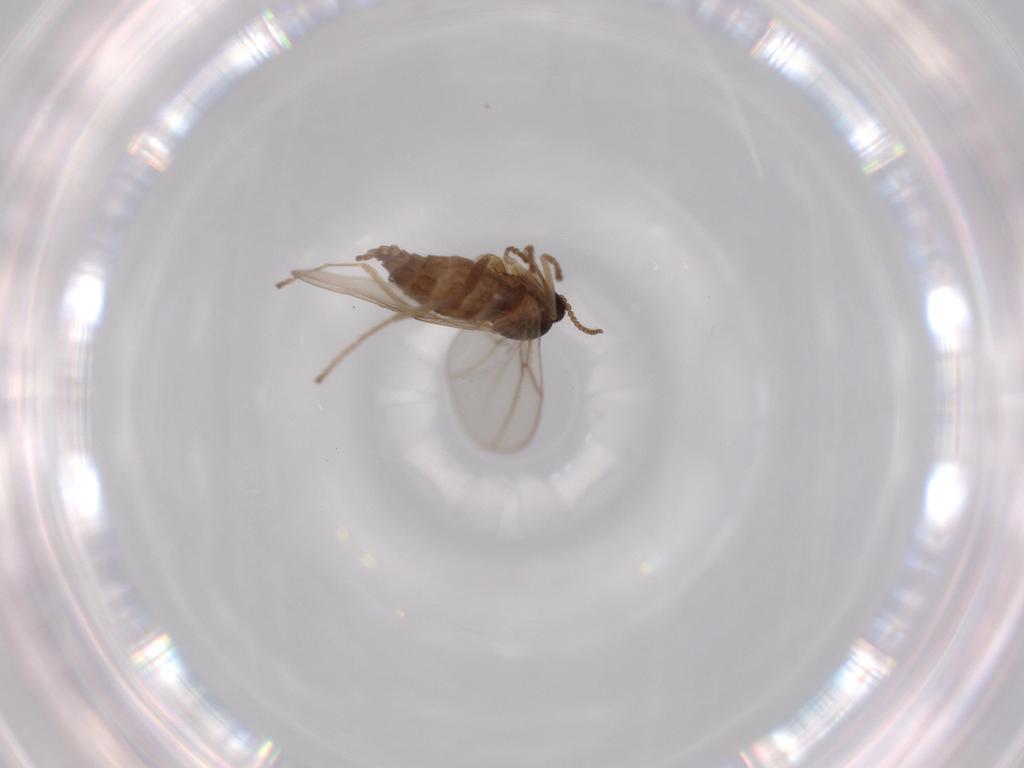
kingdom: Animalia
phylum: Arthropoda
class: Insecta
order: Diptera
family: Cecidomyiidae
